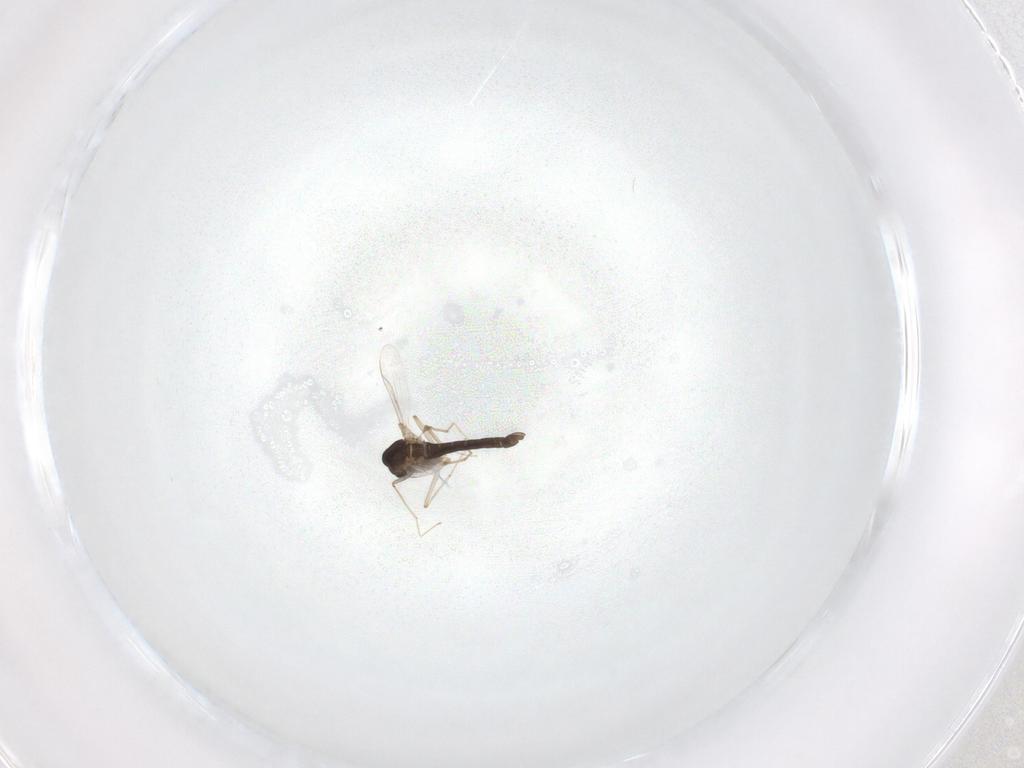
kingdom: Animalia
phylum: Arthropoda
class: Insecta
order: Diptera
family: Chironomidae
